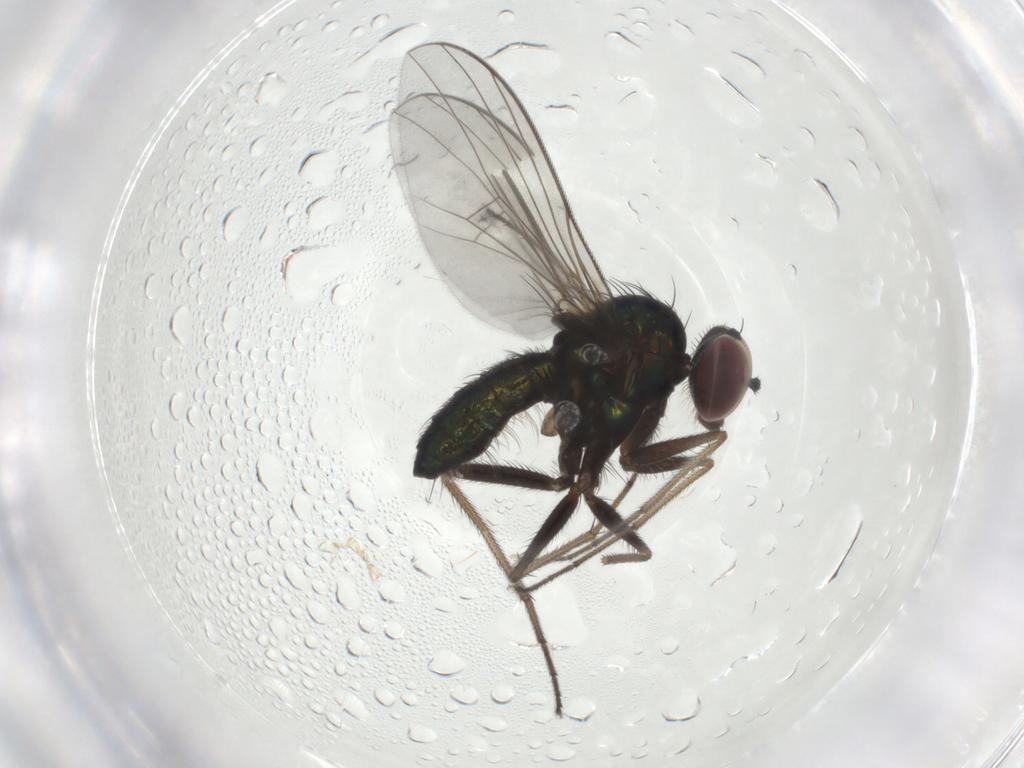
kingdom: Animalia
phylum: Arthropoda
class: Insecta
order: Diptera
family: Dolichopodidae
